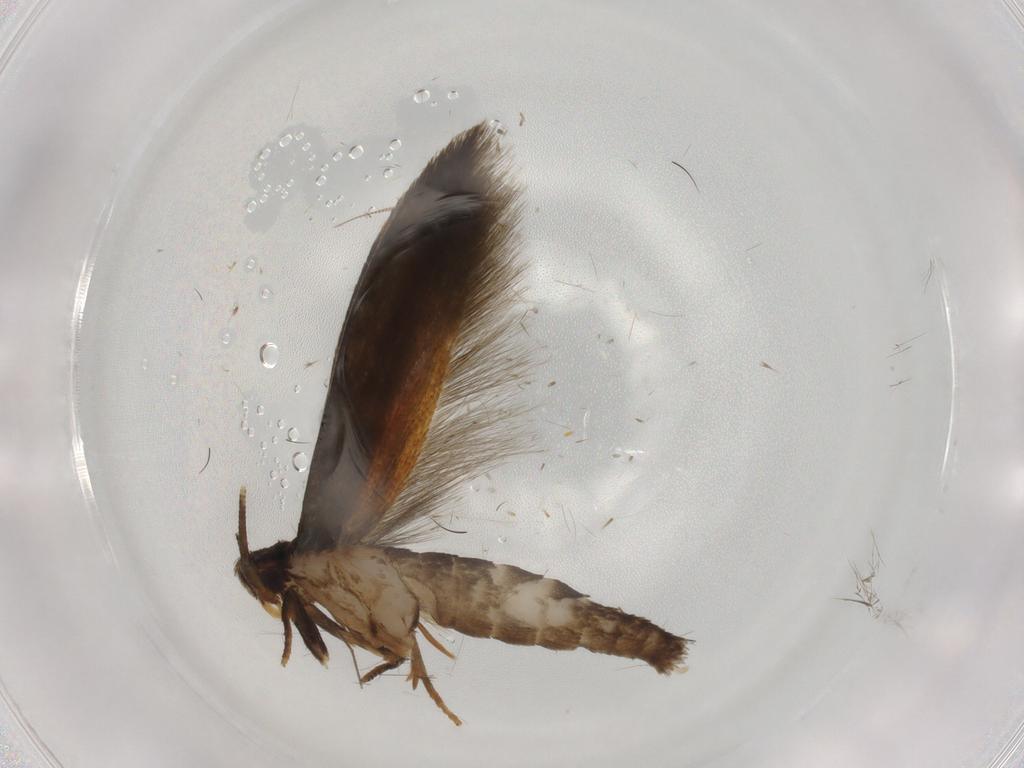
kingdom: Animalia
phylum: Arthropoda
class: Insecta
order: Lepidoptera
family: Tineidae
